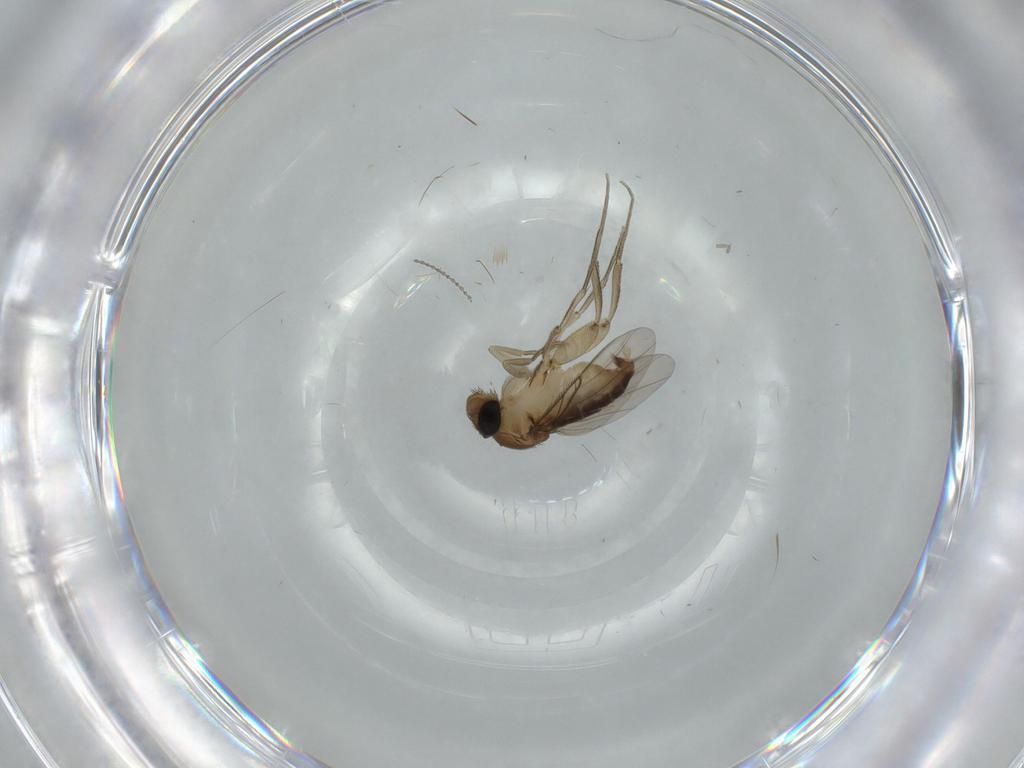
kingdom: Animalia
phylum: Arthropoda
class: Insecta
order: Diptera
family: Phoridae
